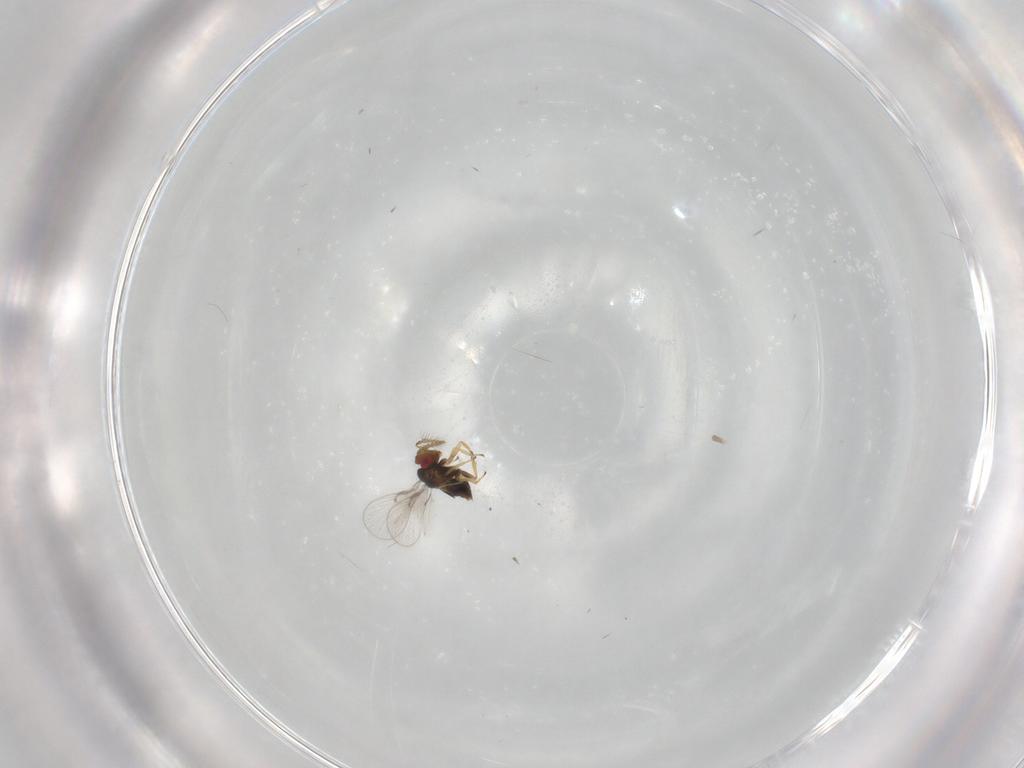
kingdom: Animalia
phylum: Arthropoda
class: Insecta
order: Hymenoptera
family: Trichogrammatidae
